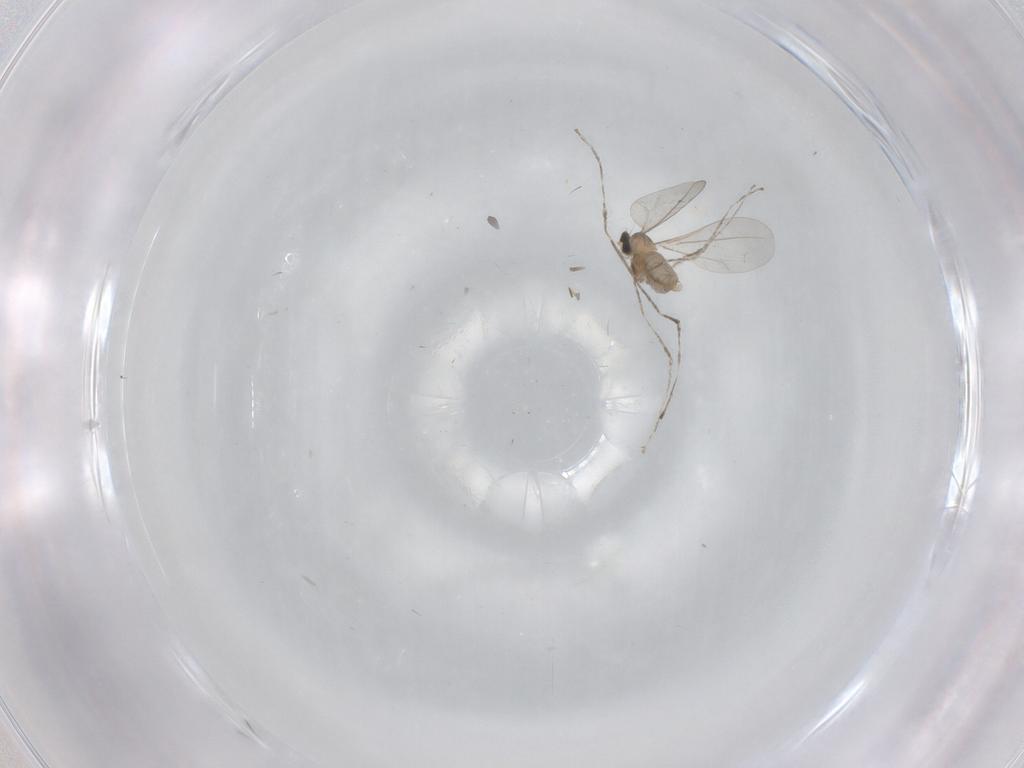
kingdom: Animalia
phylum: Arthropoda
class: Insecta
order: Diptera
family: Cecidomyiidae
